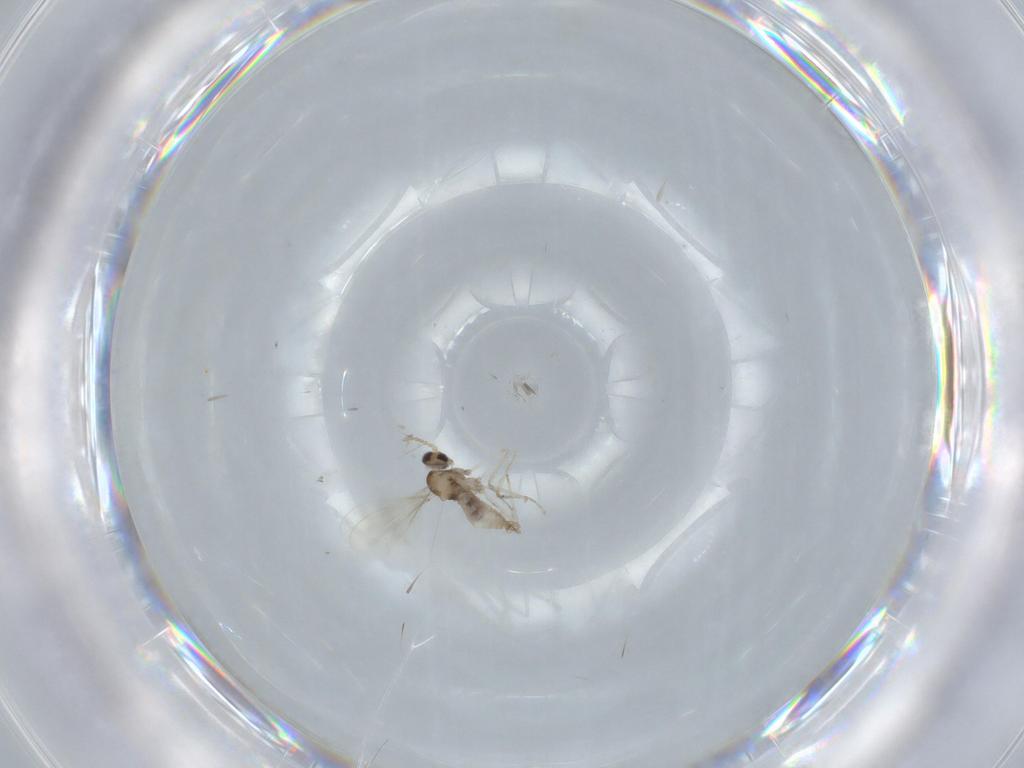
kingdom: Animalia
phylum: Arthropoda
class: Insecta
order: Diptera
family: Cecidomyiidae
